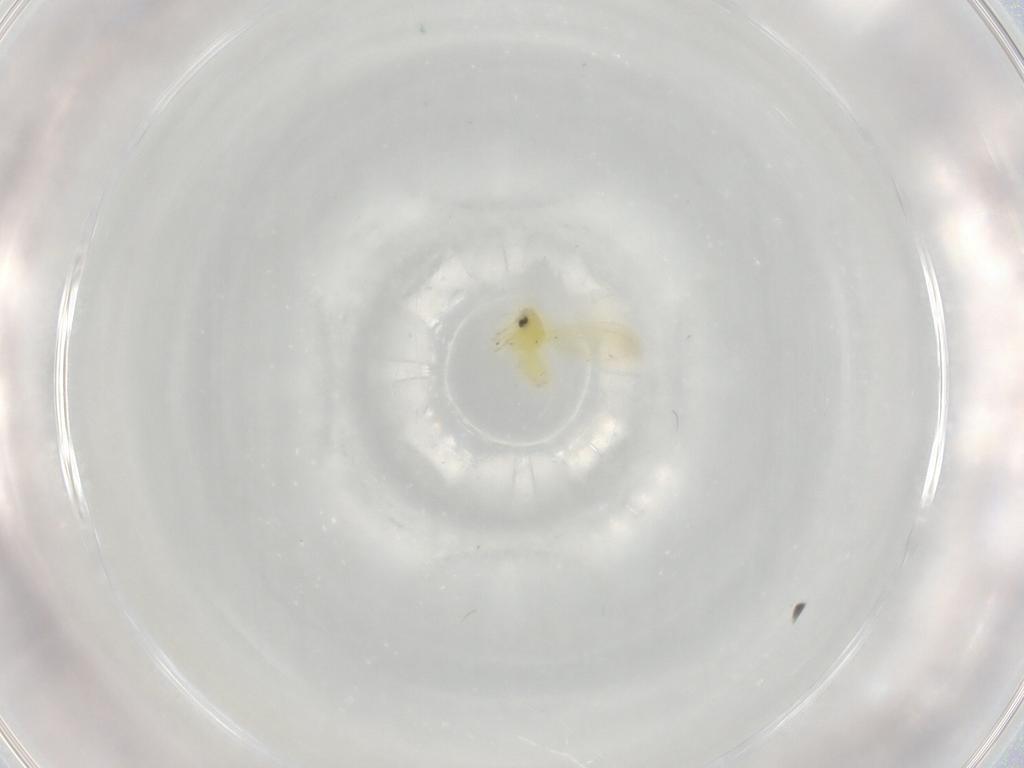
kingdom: Animalia
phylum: Arthropoda
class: Insecta
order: Hemiptera
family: Aleyrodidae
